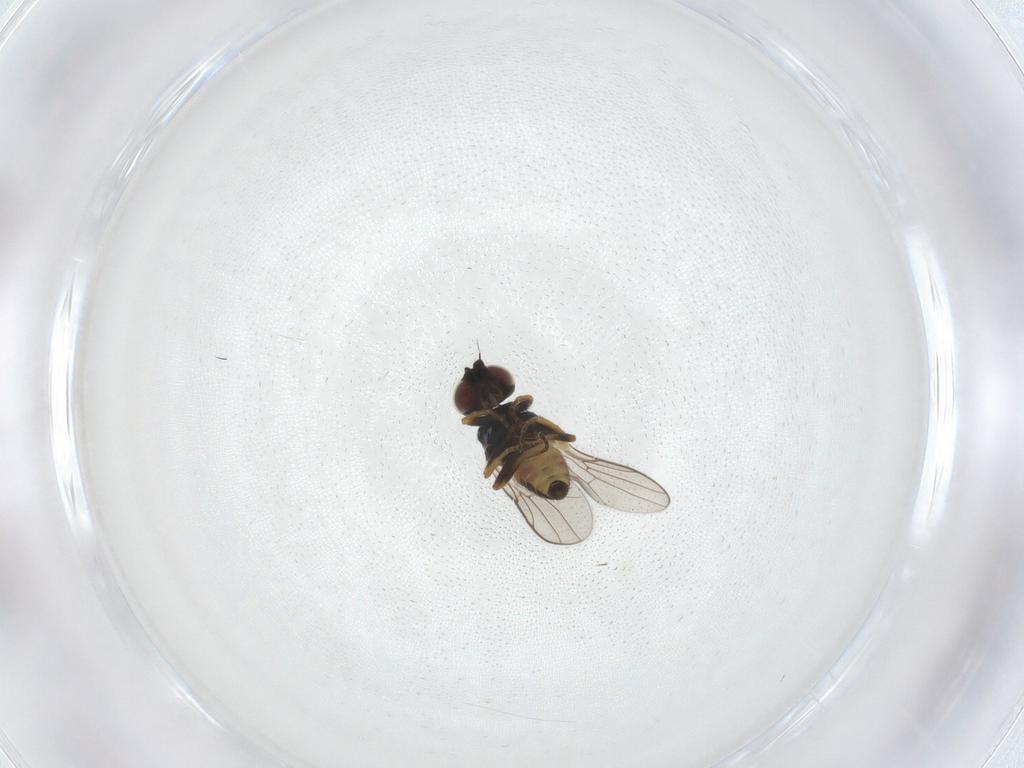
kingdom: Animalia
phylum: Arthropoda
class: Insecta
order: Diptera
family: Chloropidae
